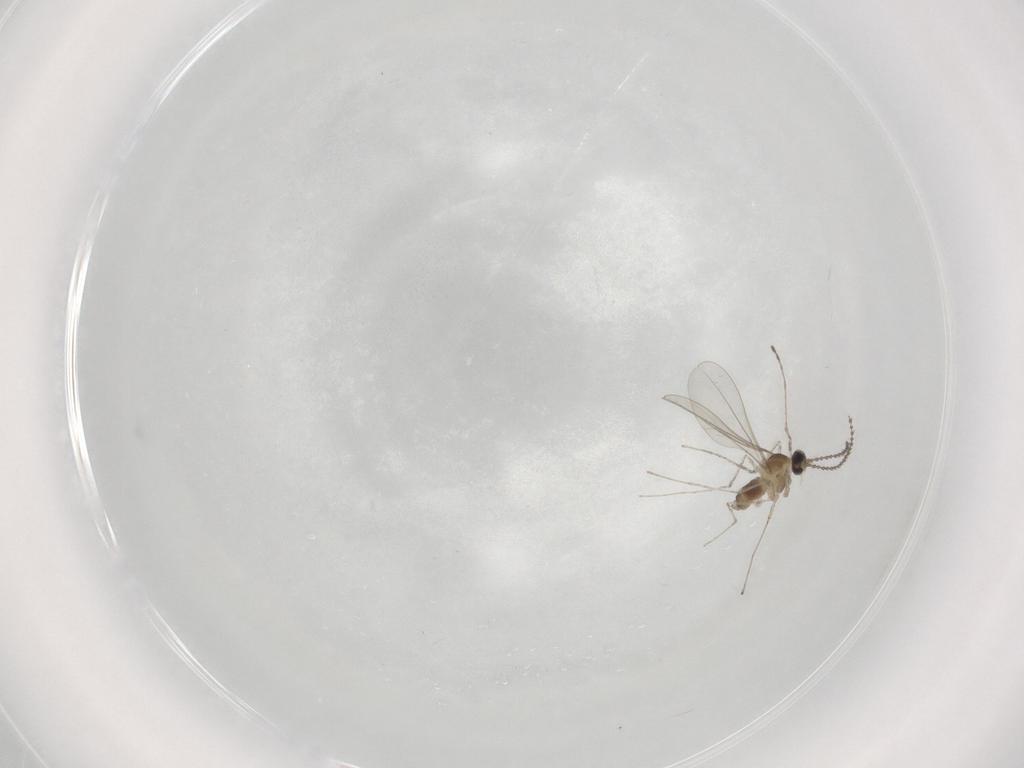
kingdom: Animalia
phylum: Arthropoda
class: Insecta
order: Diptera
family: Cecidomyiidae
